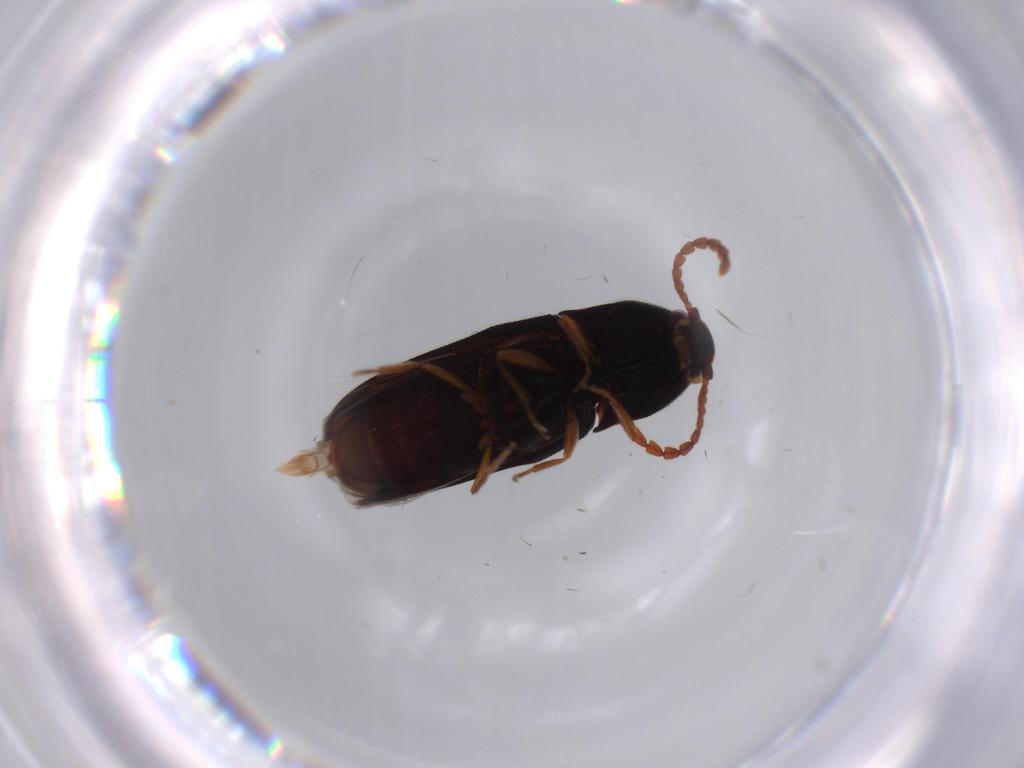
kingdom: Animalia
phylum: Arthropoda
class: Insecta
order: Coleoptera
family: Elateridae
